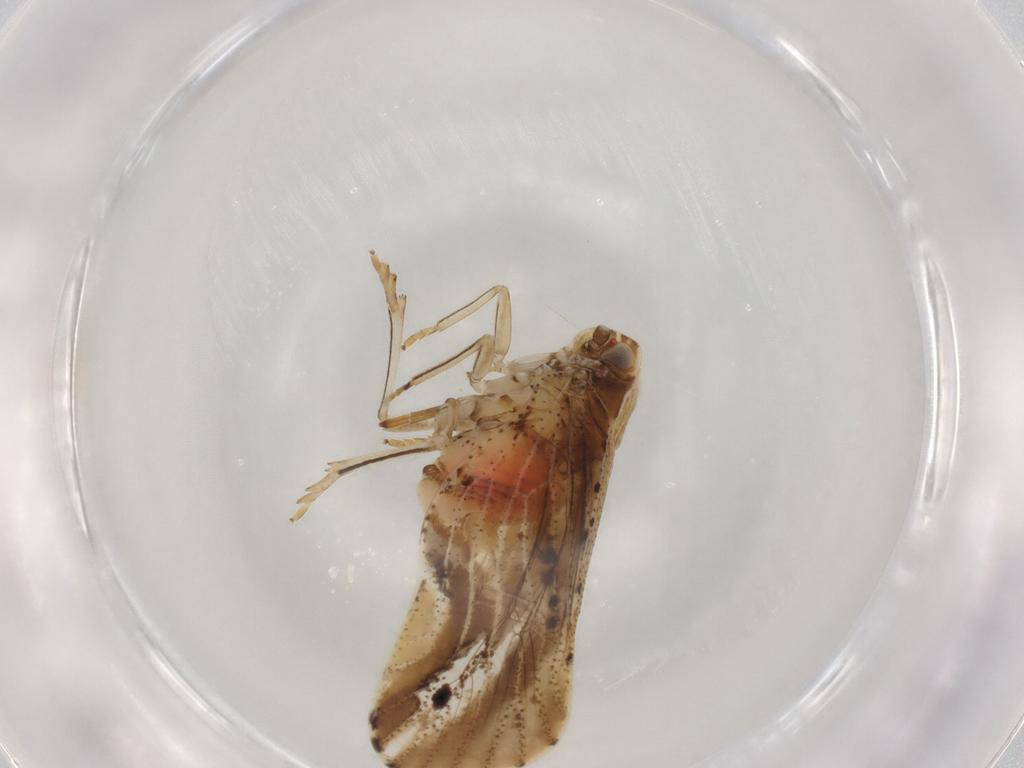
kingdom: Animalia
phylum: Arthropoda
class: Insecta
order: Hemiptera
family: Cixiidae
